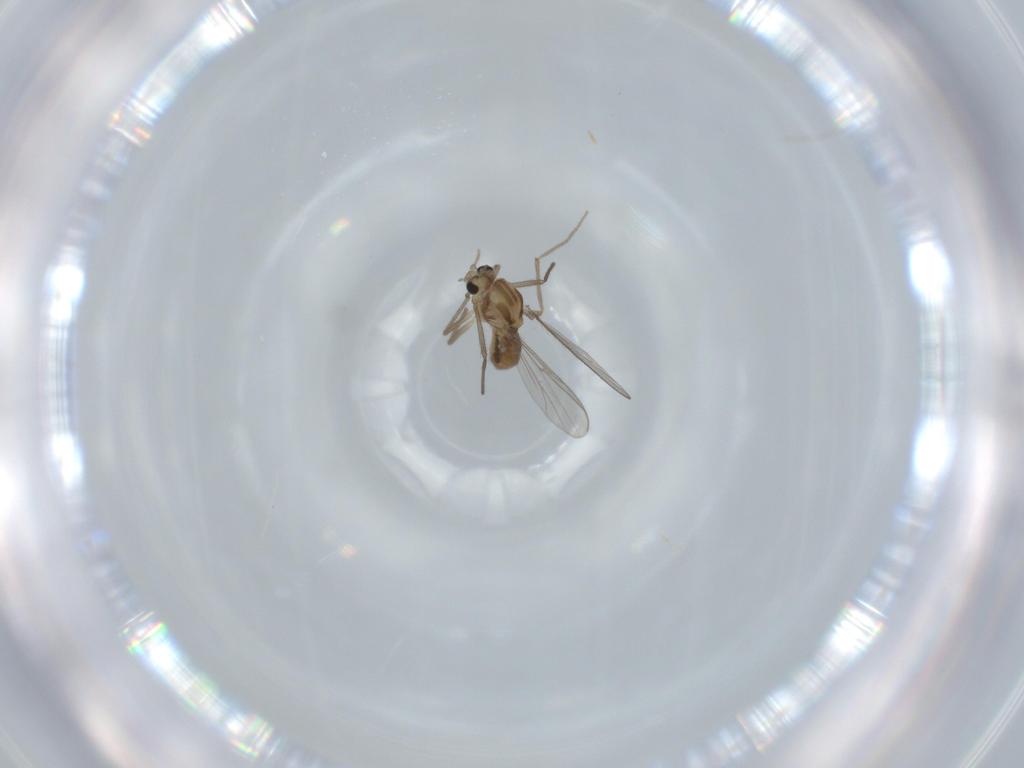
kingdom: Animalia
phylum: Arthropoda
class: Insecta
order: Diptera
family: Chironomidae
